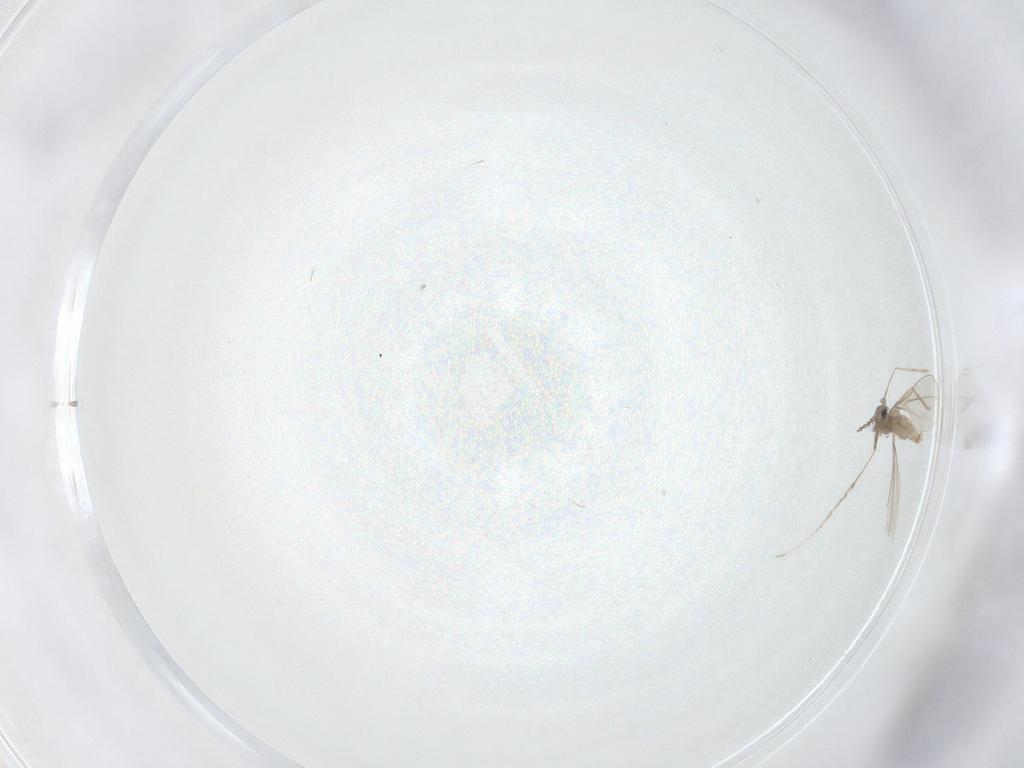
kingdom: Animalia
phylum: Arthropoda
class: Insecta
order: Diptera
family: Cecidomyiidae
